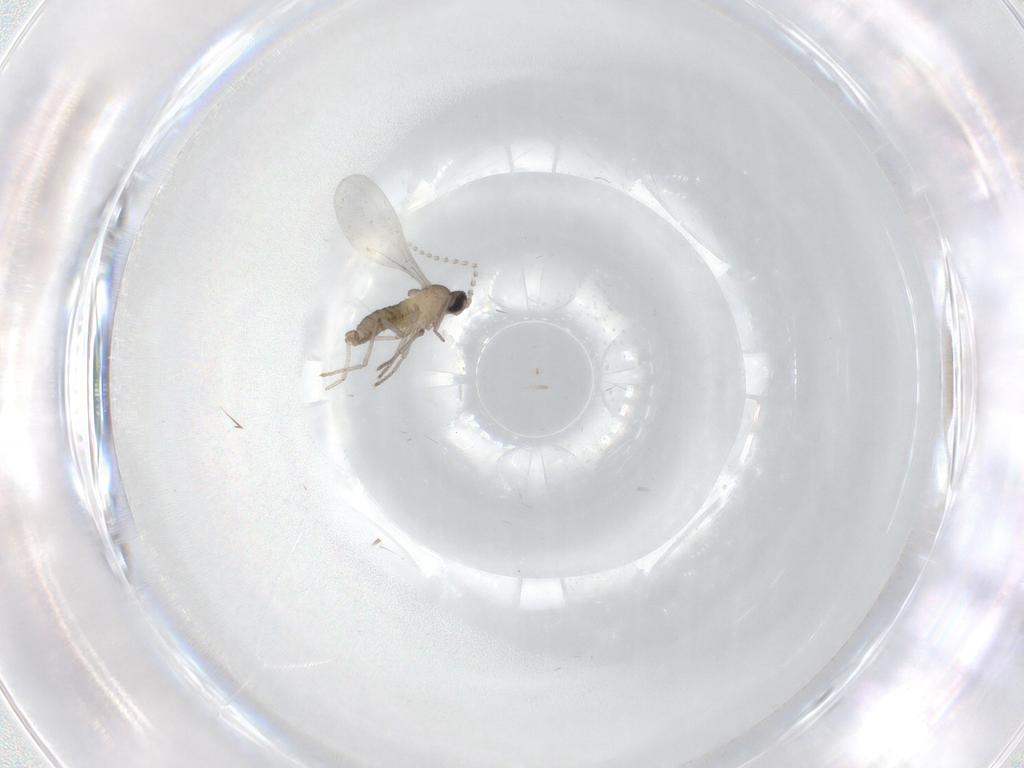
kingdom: Animalia
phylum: Arthropoda
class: Insecta
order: Diptera
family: Cecidomyiidae
